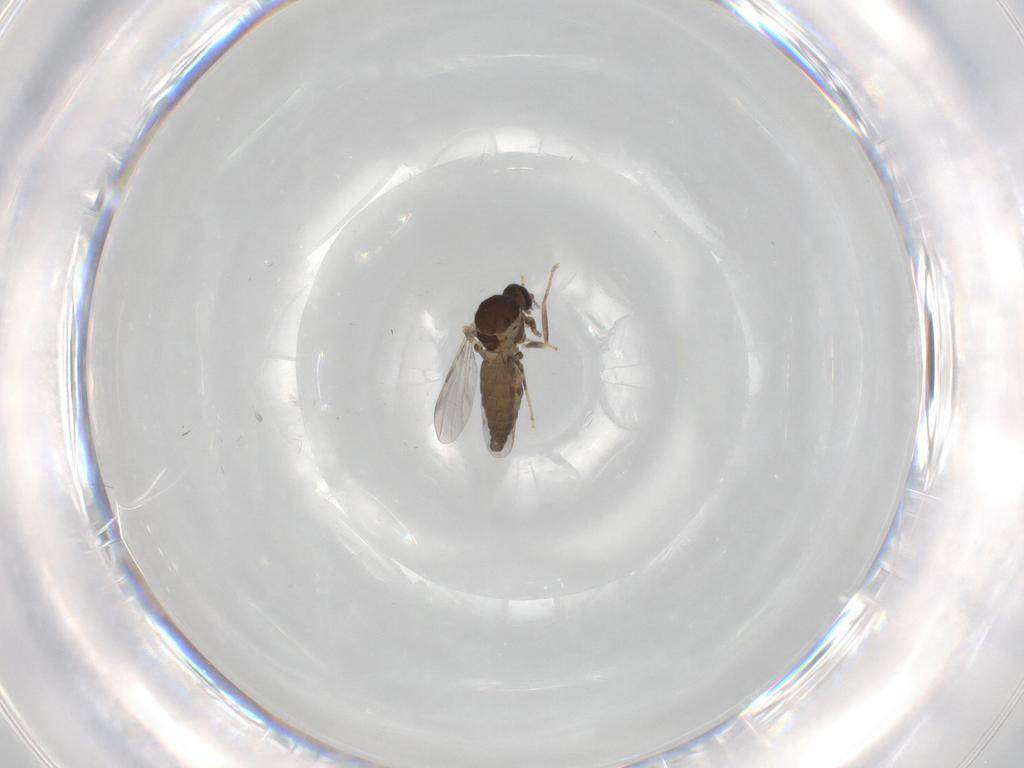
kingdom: Animalia
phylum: Arthropoda
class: Insecta
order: Diptera
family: Ceratopogonidae
